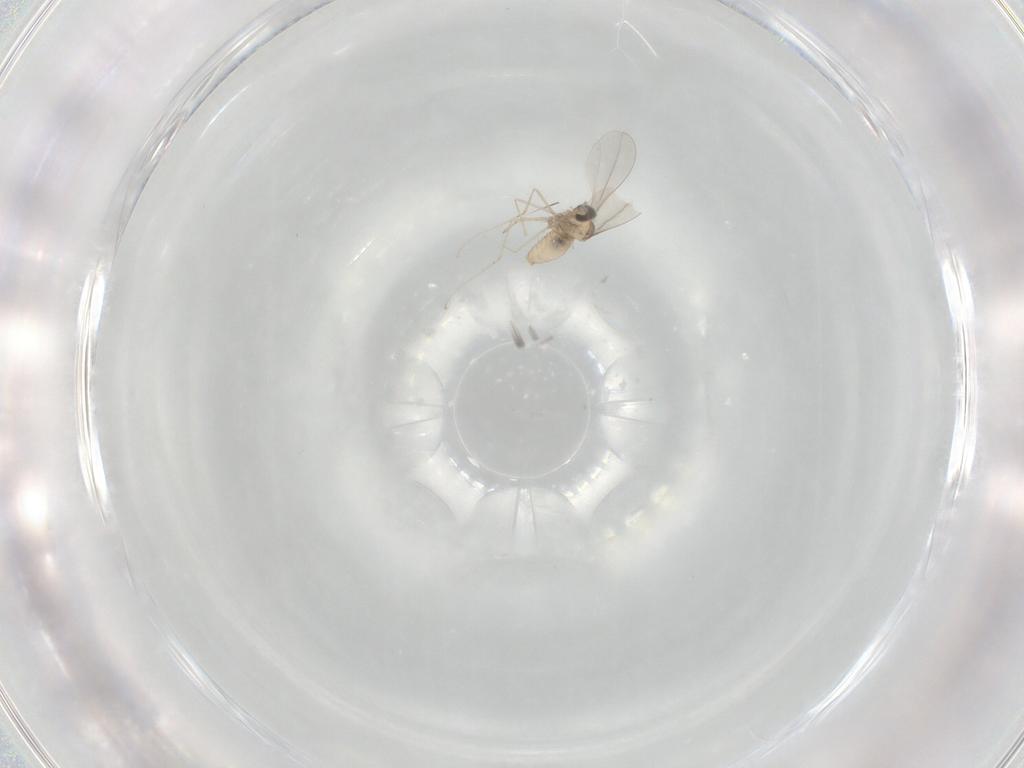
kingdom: Animalia
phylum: Arthropoda
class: Insecta
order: Diptera
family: Cecidomyiidae
